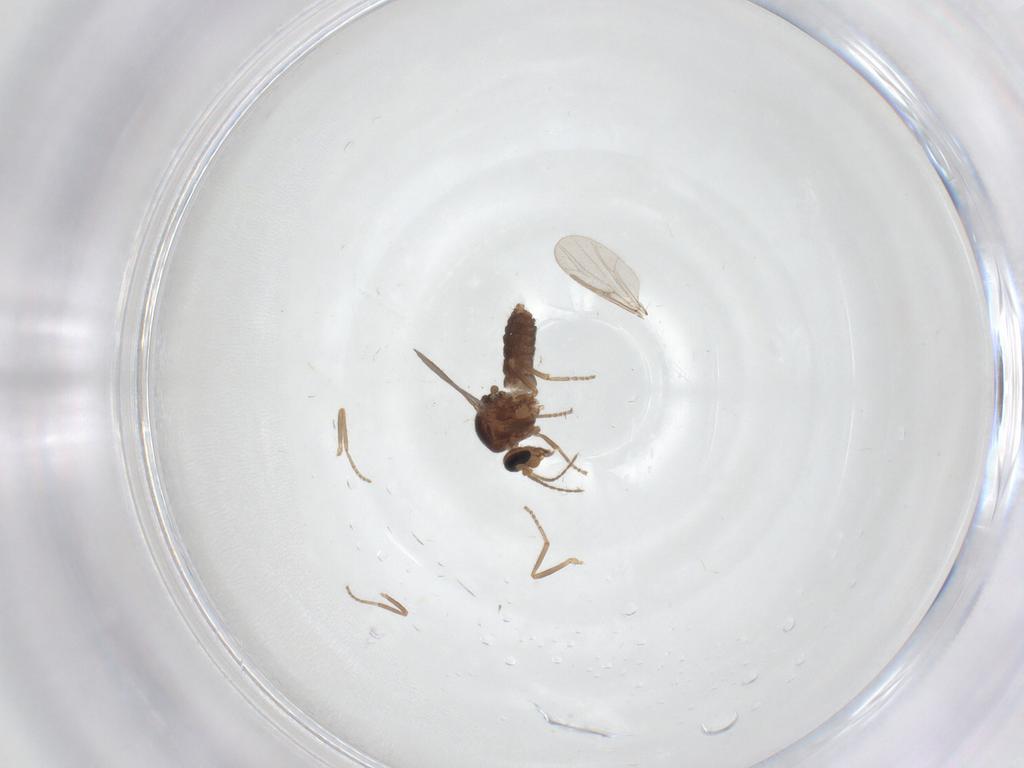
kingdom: Animalia
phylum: Arthropoda
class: Insecta
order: Diptera
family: Ceratopogonidae
